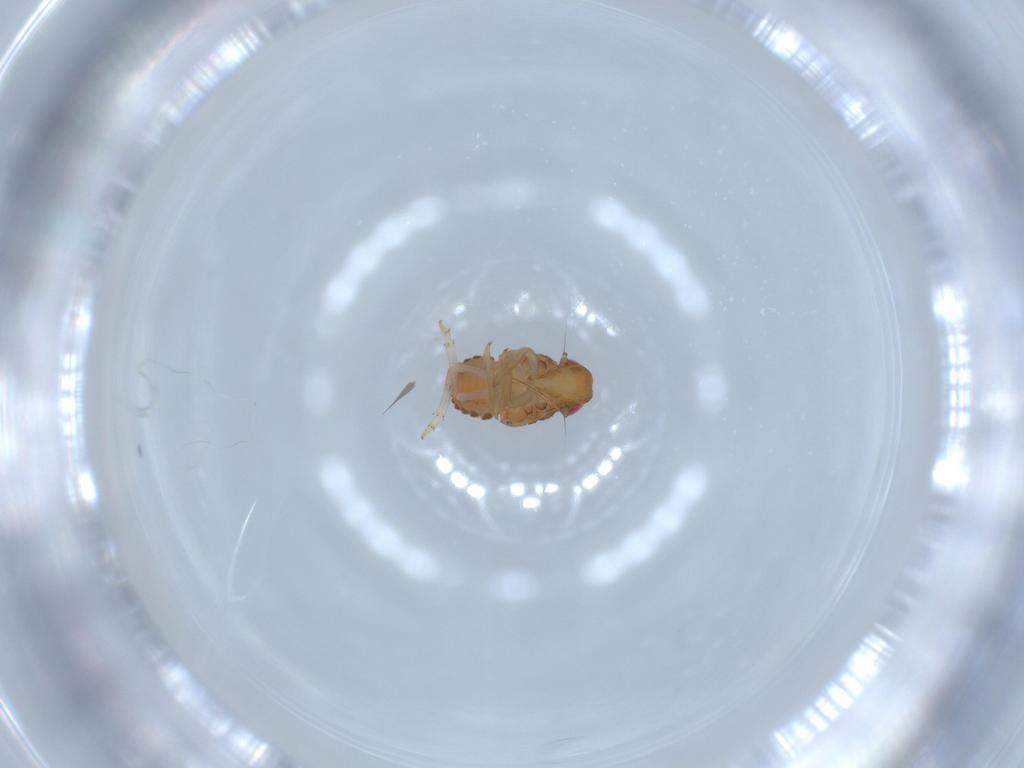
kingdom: Animalia
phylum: Arthropoda
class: Insecta
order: Hemiptera
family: Issidae
